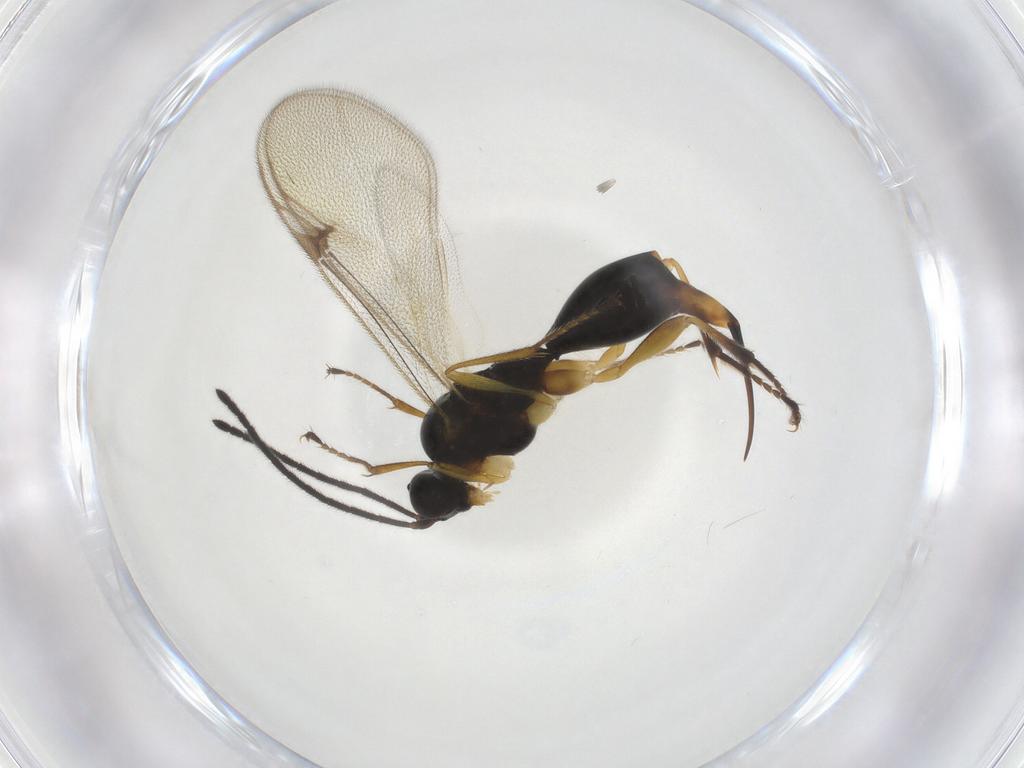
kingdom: Animalia
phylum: Arthropoda
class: Insecta
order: Hymenoptera
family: Proctotrupidae
